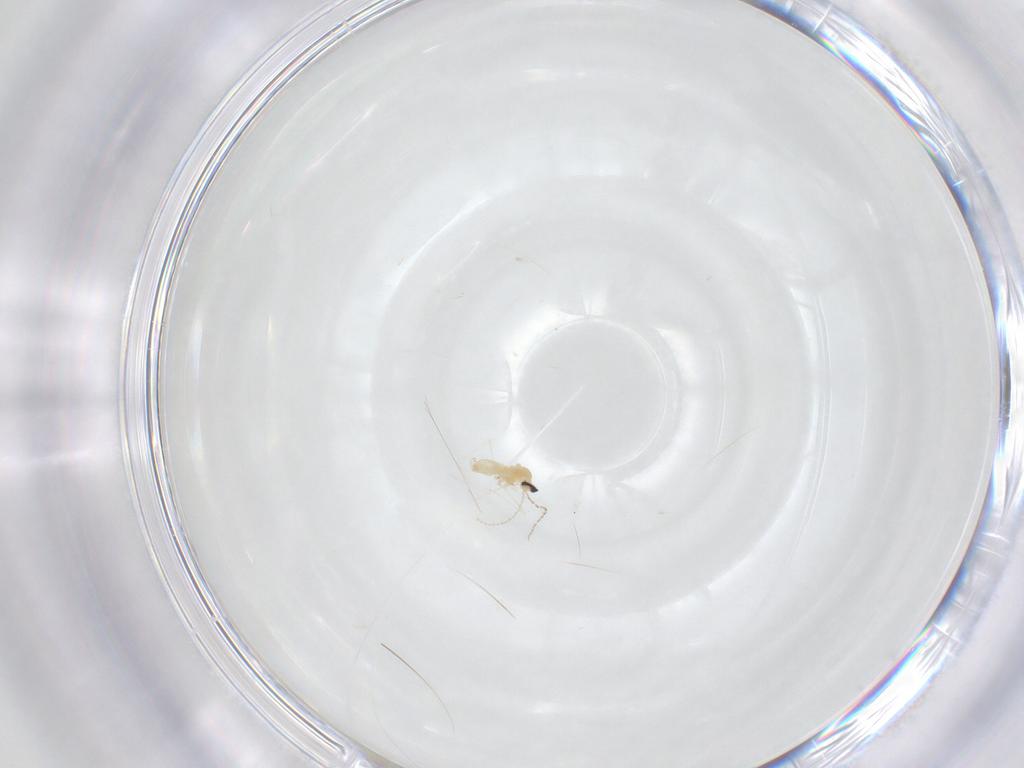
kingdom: Animalia
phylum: Arthropoda
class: Insecta
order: Diptera
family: Cecidomyiidae
